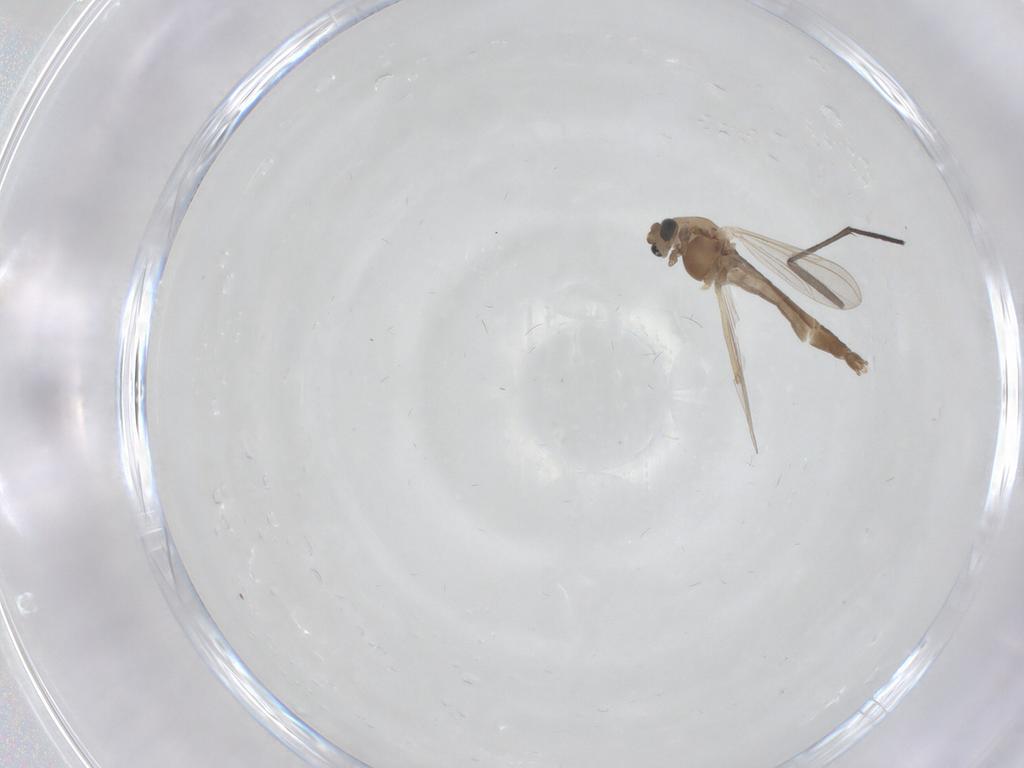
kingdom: Animalia
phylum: Arthropoda
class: Insecta
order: Diptera
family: Chironomidae
